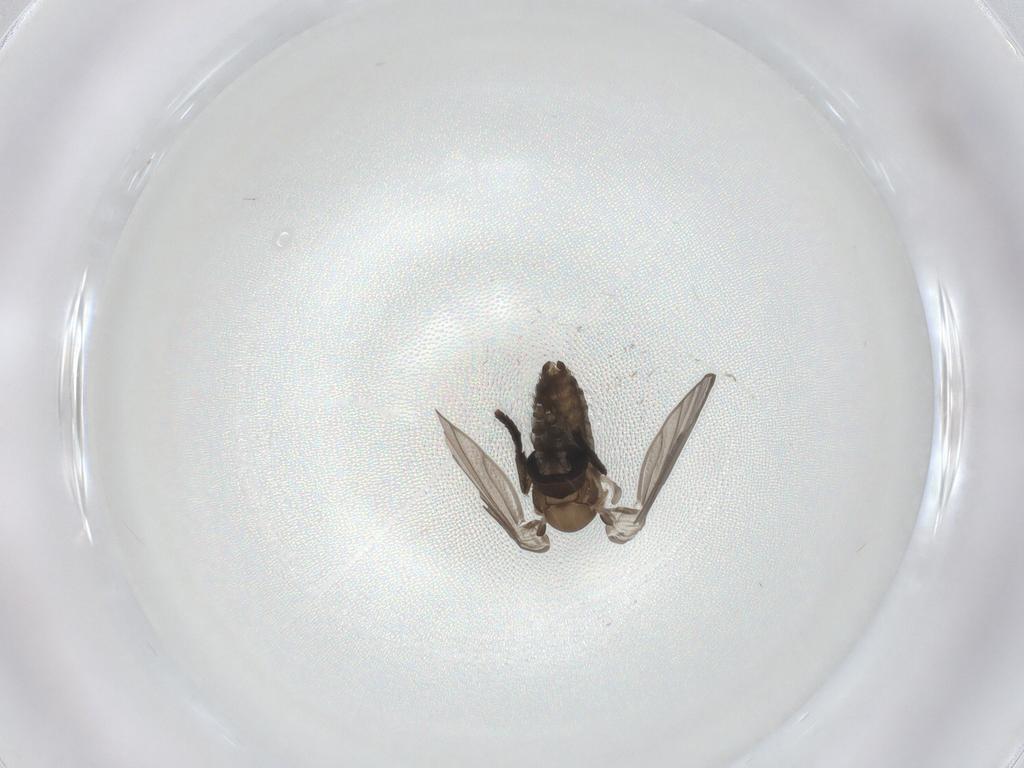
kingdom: Animalia
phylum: Arthropoda
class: Insecta
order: Diptera
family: Psychodidae
